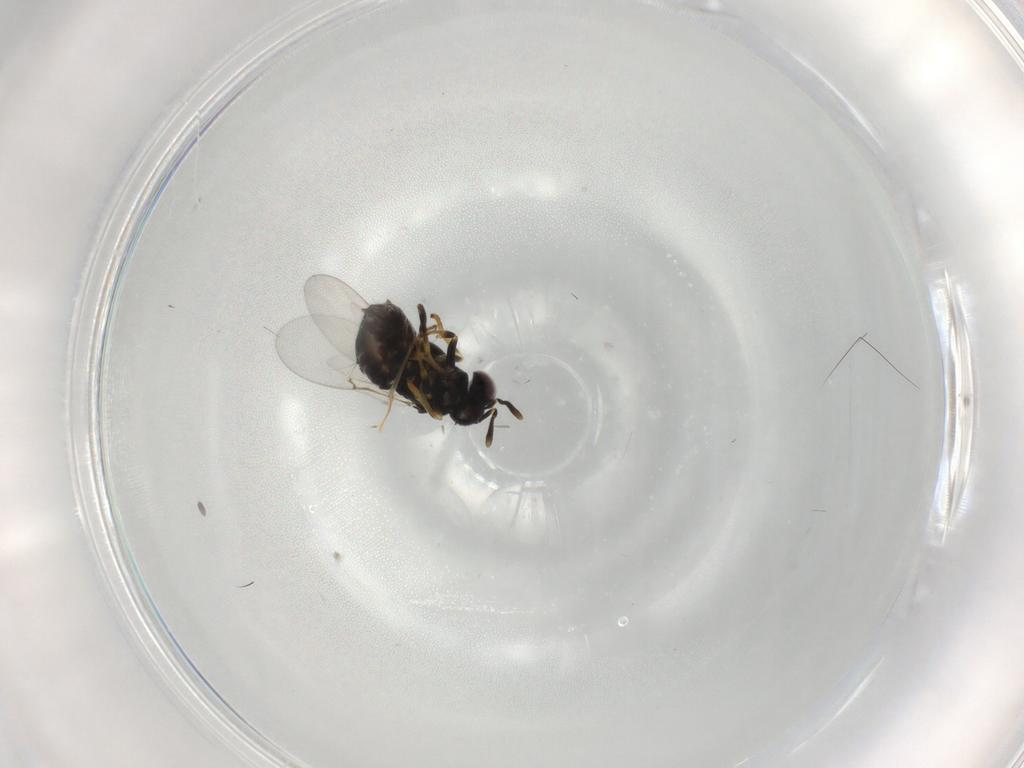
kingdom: Animalia
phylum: Arthropoda
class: Insecta
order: Hymenoptera
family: Encyrtidae
